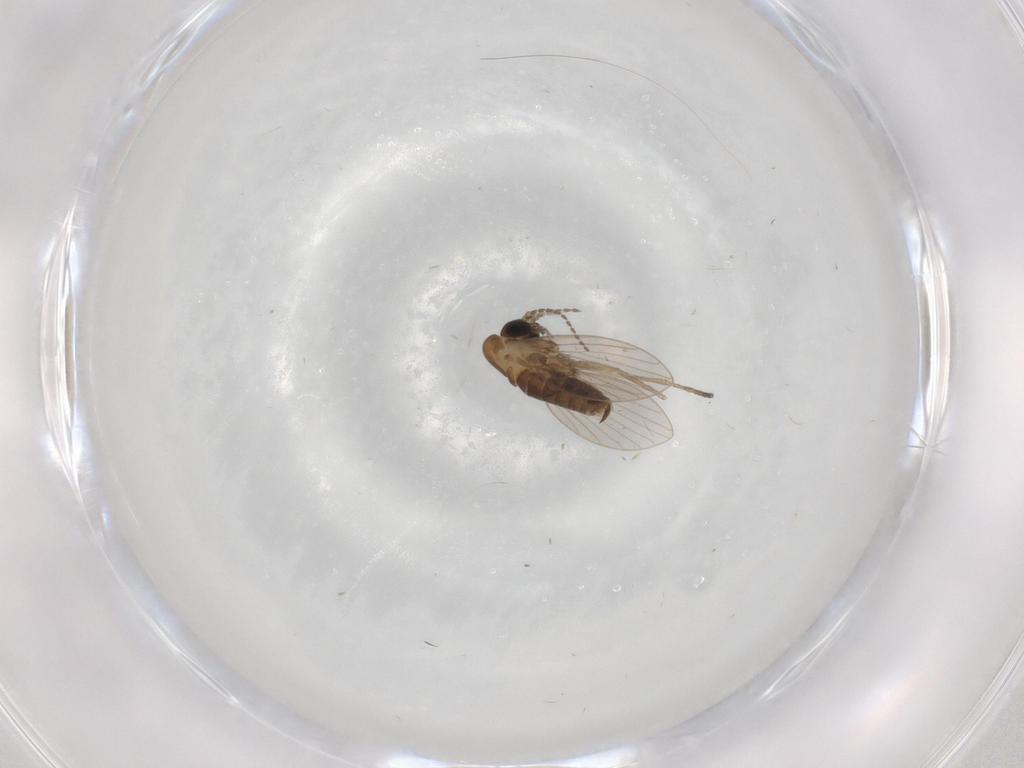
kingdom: Animalia
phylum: Arthropoda
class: Insecta
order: Diptera
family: Psychodidae
